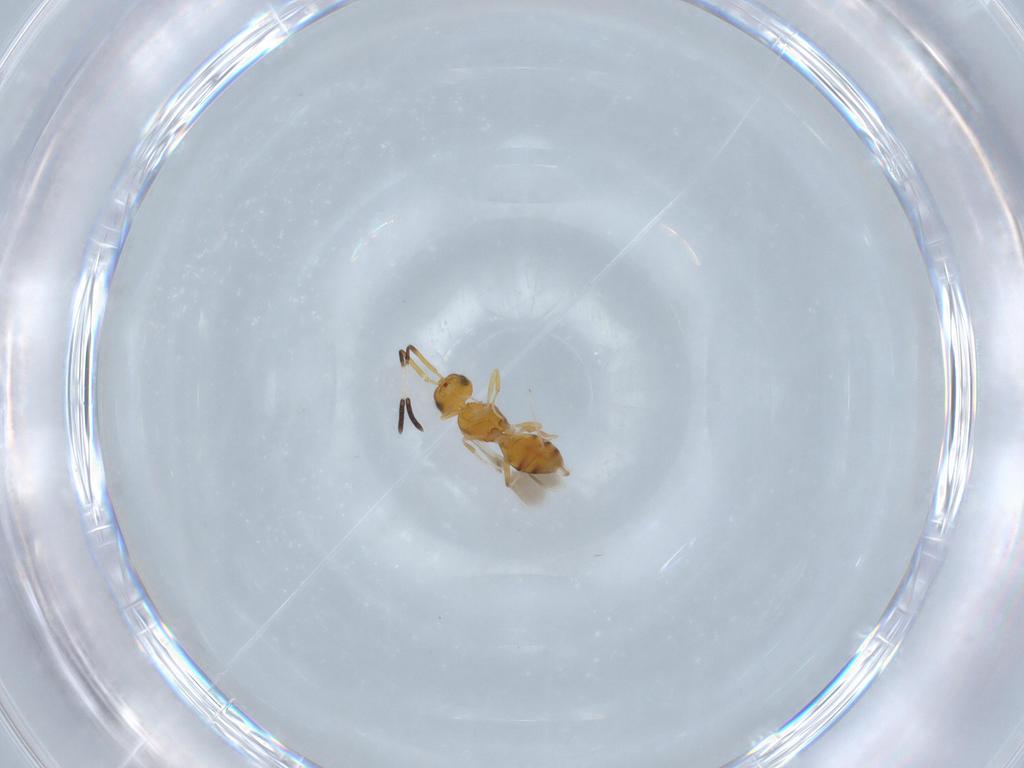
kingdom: Animalia
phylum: Arthropoda
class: Insecta
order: Hymenoptera
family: Scelionidae
